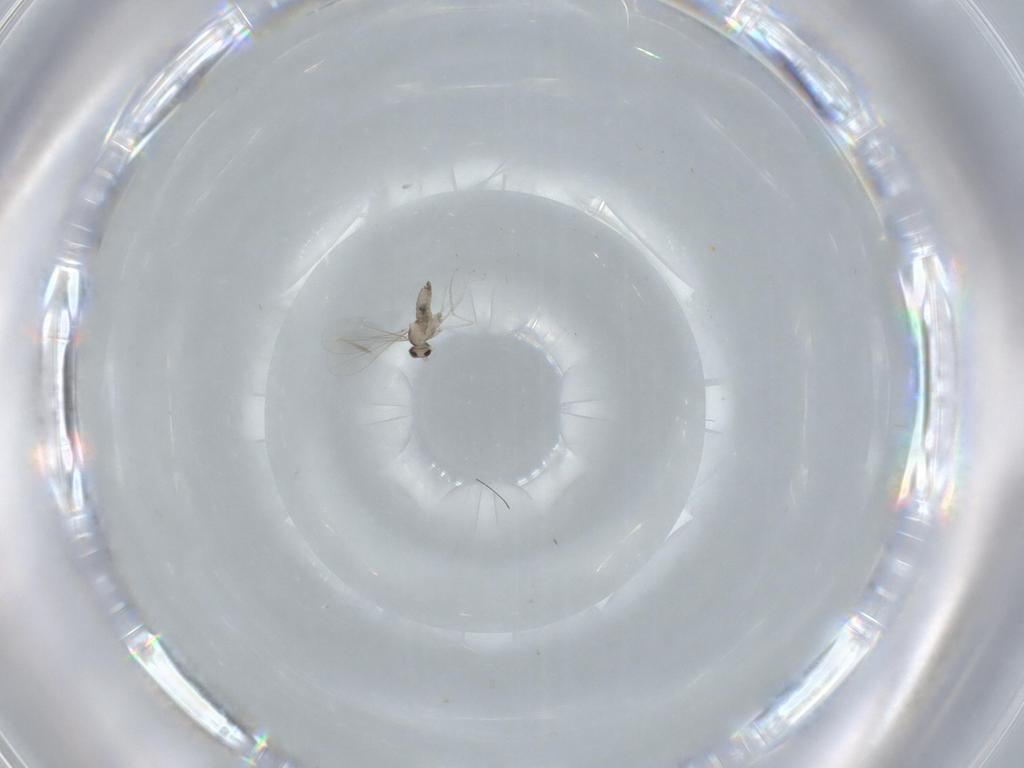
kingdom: Animalia
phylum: Arthropoda
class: Insecta
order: Diptera
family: Cecidomyiidae
